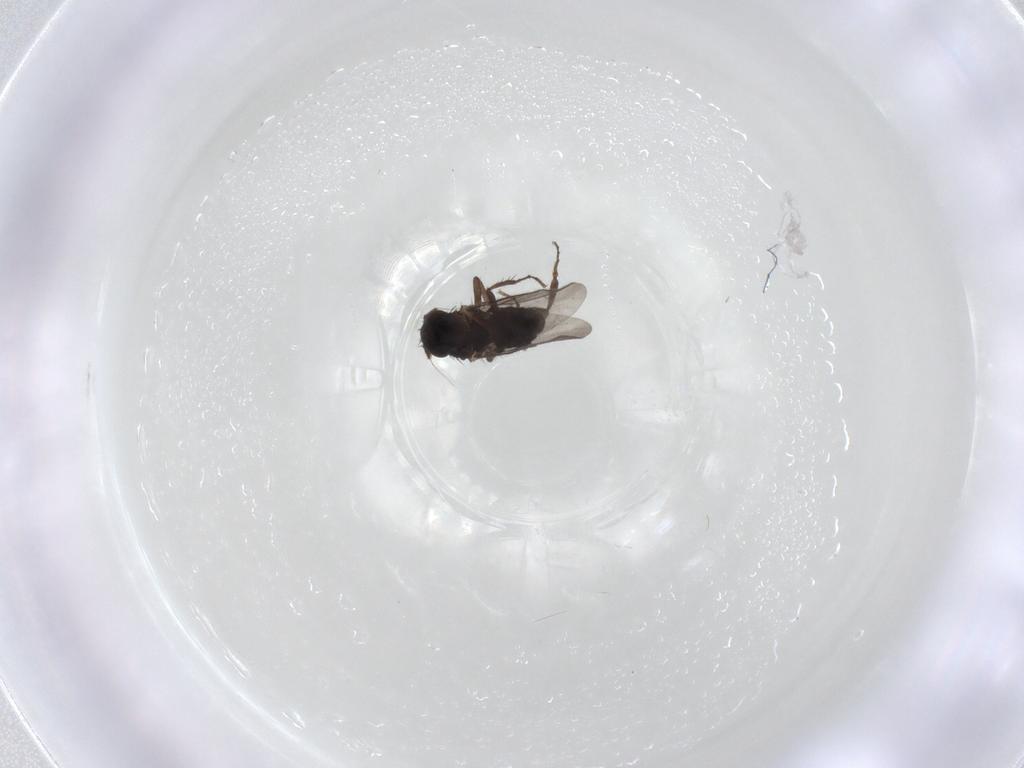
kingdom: Animalia
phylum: Arthropoda
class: Insecta
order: Diptera
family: Sphaeroceridae
